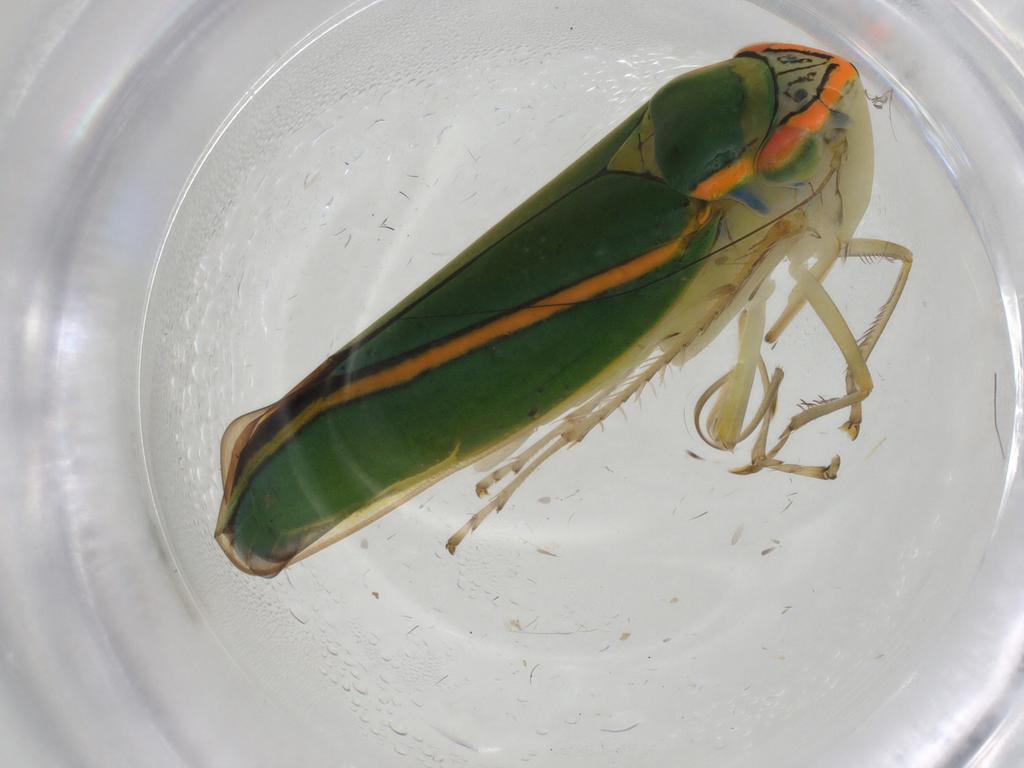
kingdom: Animalia
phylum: Arthropoda
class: Insecta
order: Hemiptera
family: Cicadellidae
